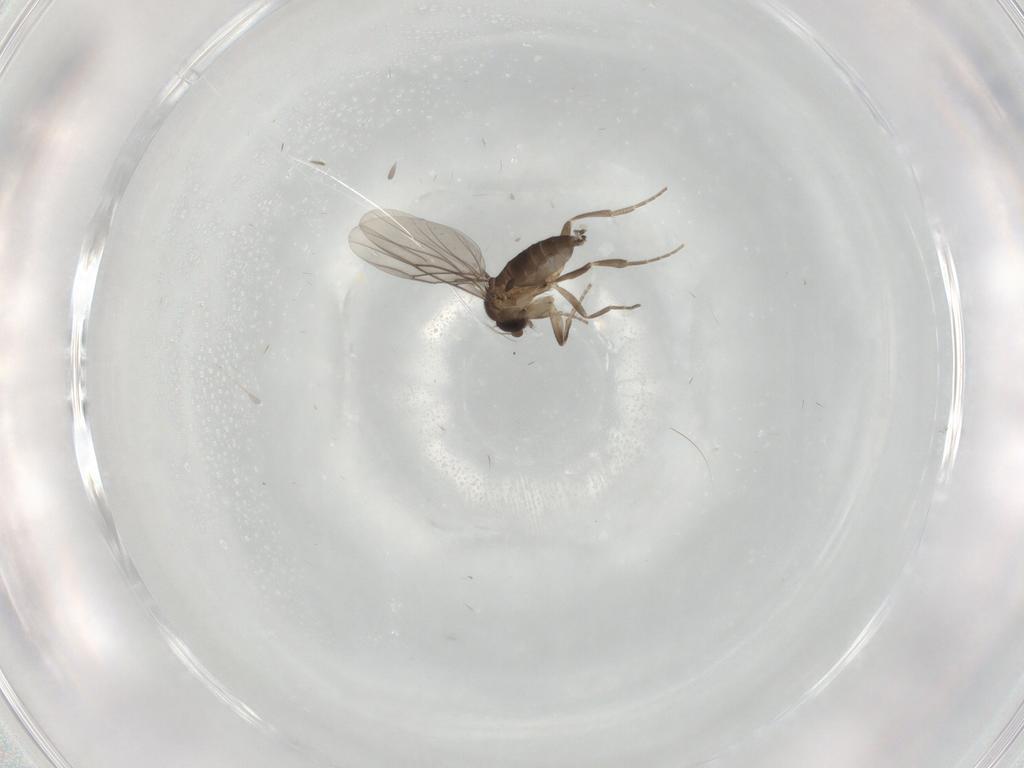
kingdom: Animalia
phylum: Arthropoda
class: Insecta
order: Diptera
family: Phoridae
